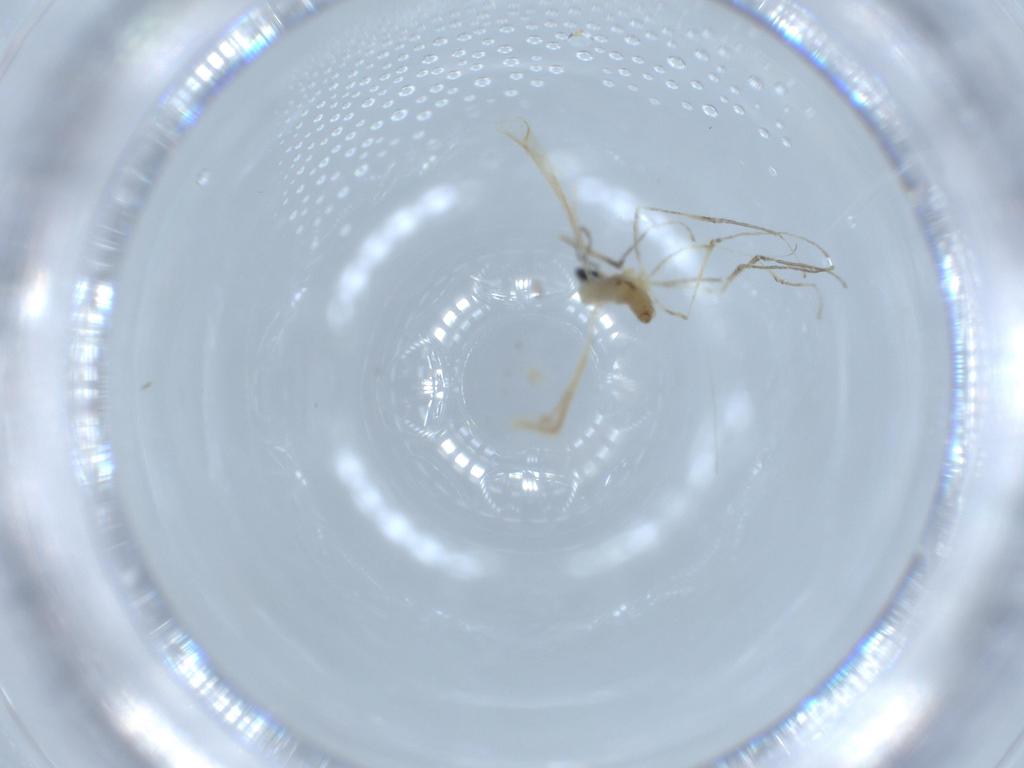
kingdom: Animalia
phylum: Arthropoda
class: Insecta
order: Diptera
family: Cecidomyiidae
